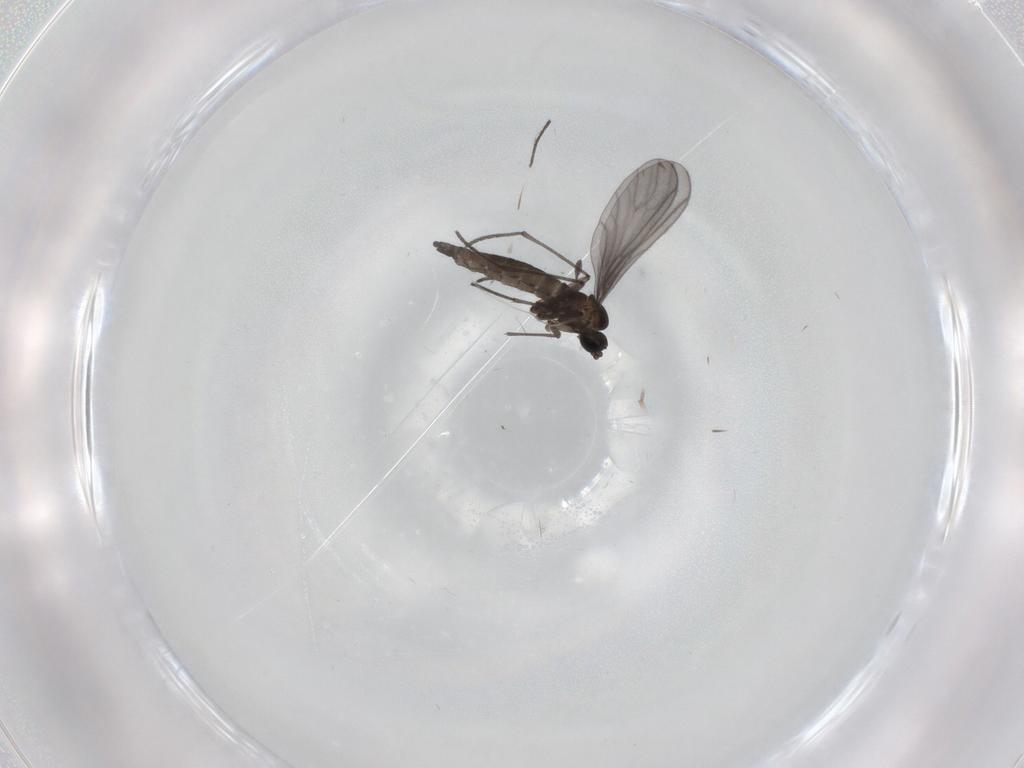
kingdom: Animalia
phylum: Arthropoda
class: Insecta
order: Diptera
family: Sciaridae
